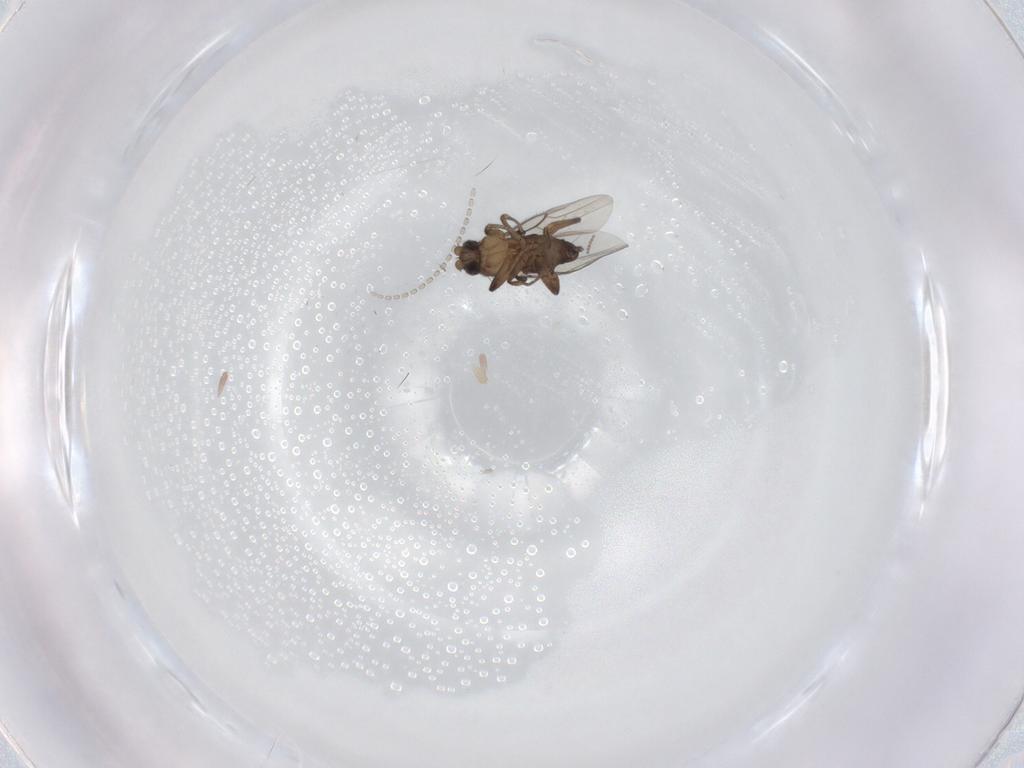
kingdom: Animalia
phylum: Arthropoda
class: Insecta
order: Diptera
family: Phoridae
